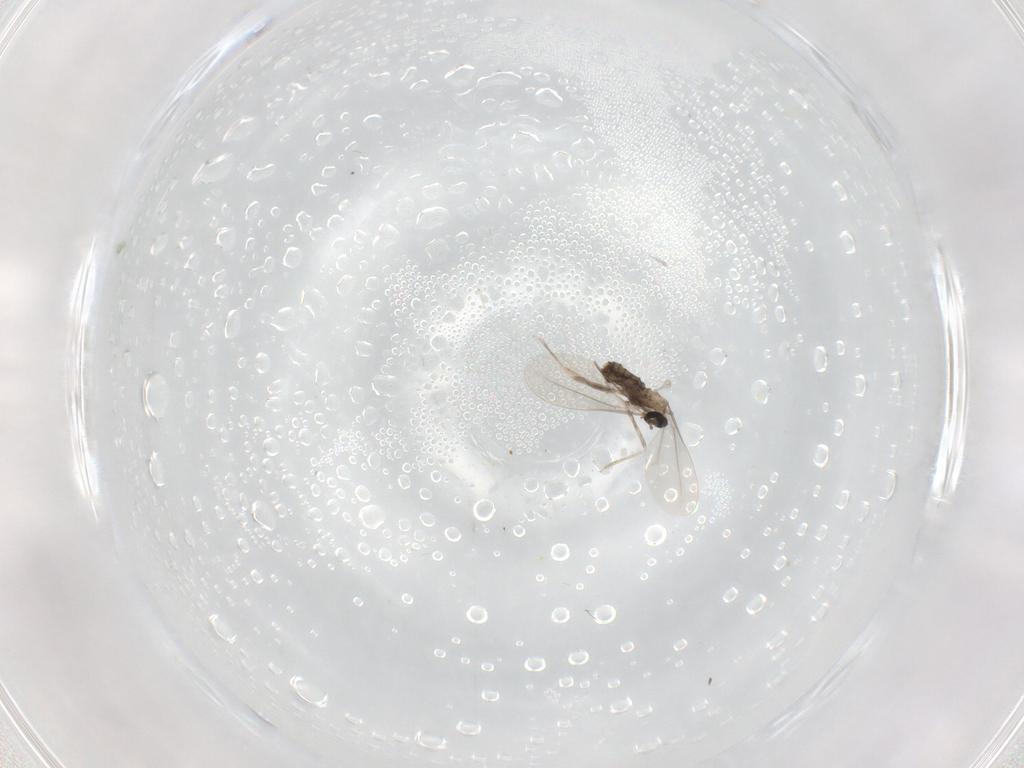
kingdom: Animalia
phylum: Arthropoda
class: Insecta
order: Diptera
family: Cecidomyiidae
